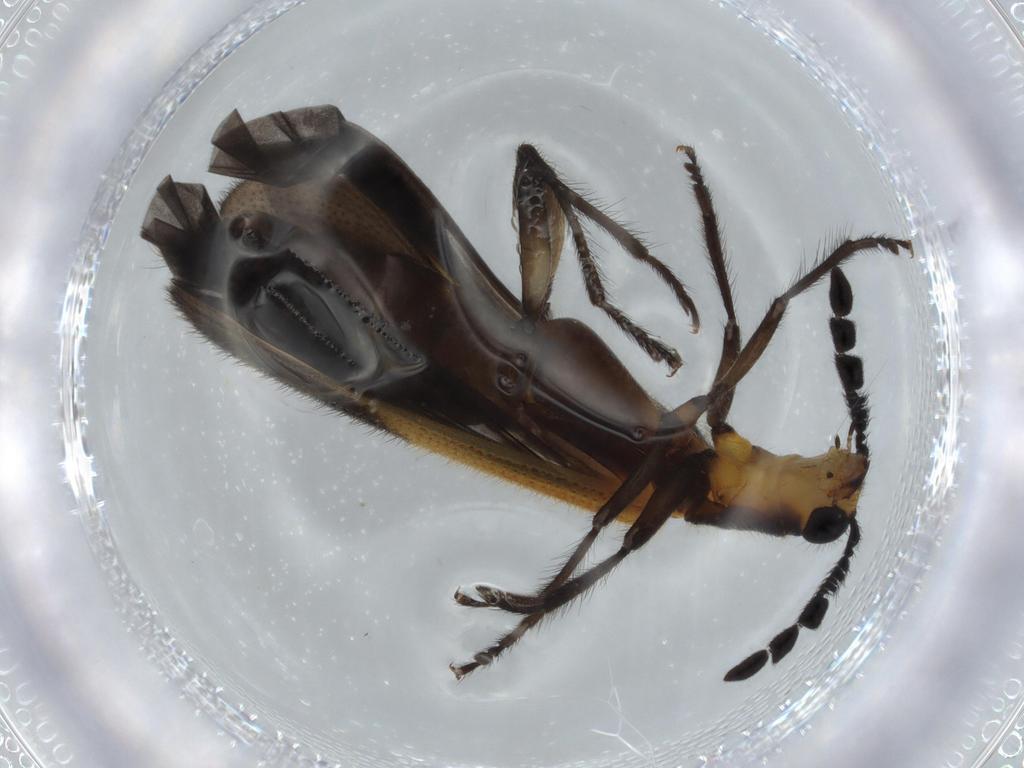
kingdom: Animalia
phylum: Arthropoda
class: Insecta
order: Coleoptera
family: Cleridae
